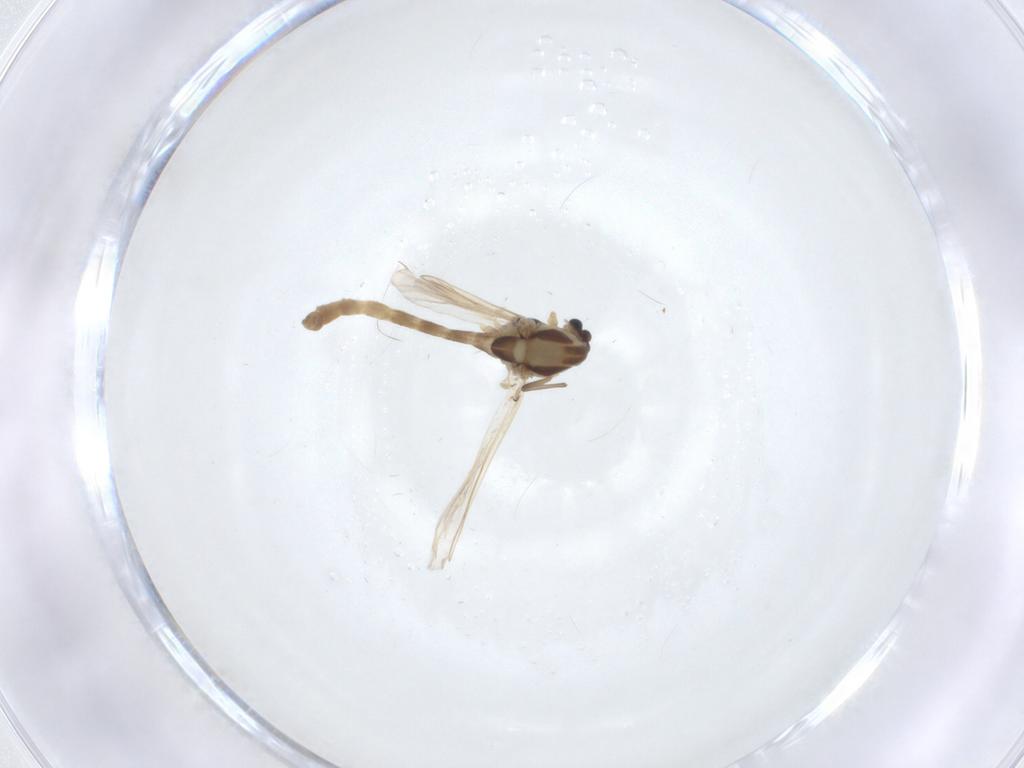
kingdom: Animalia
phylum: Arthropoda
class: Insecta
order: Diptera
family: Chironomidae
